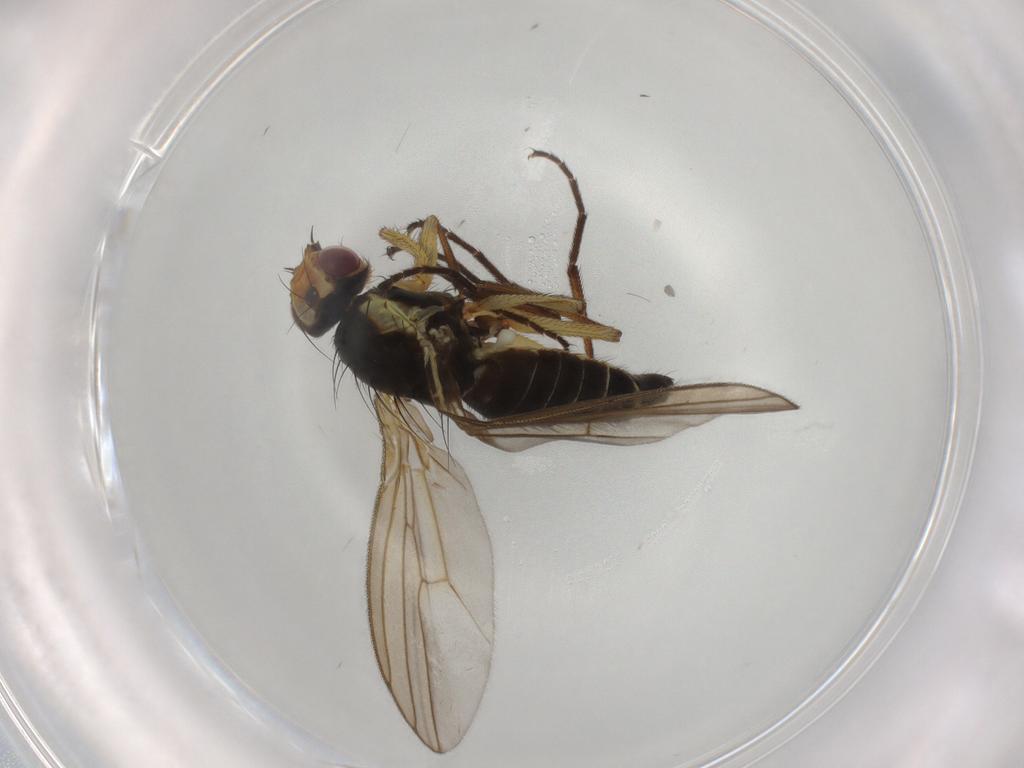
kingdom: Animalia
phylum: Arthropoda
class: Insecta
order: Diptera
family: Agromyzidae
